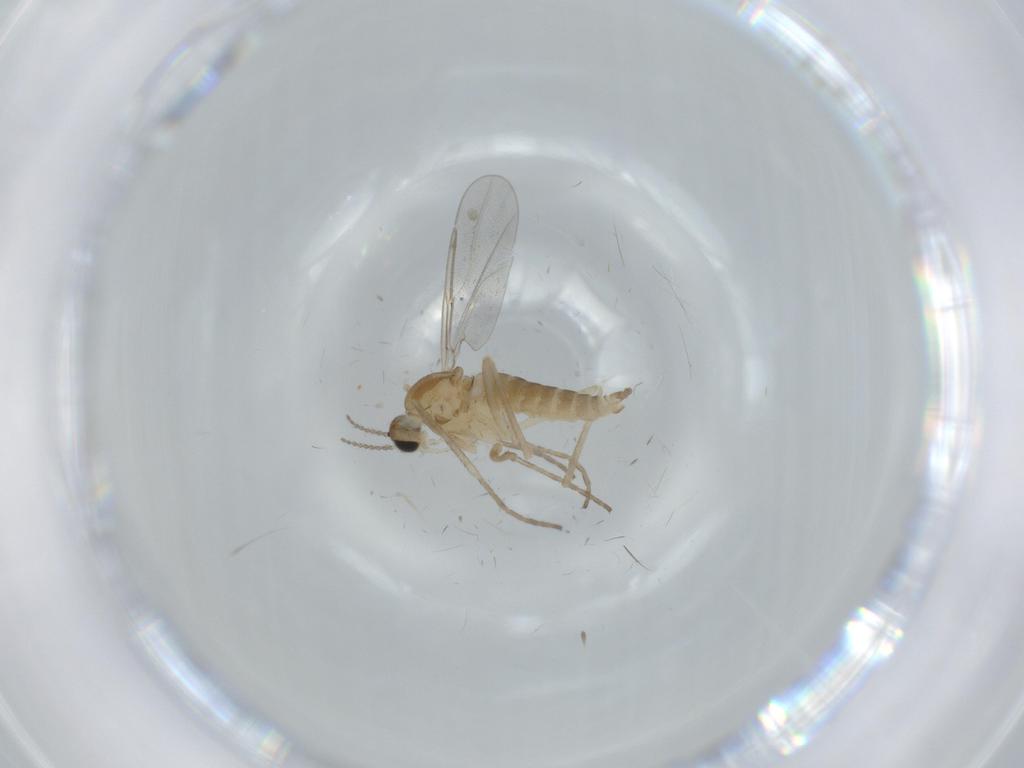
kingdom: Animalia
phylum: Arthropoda
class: Insecta
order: Diptera
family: Cecidomyiidae
